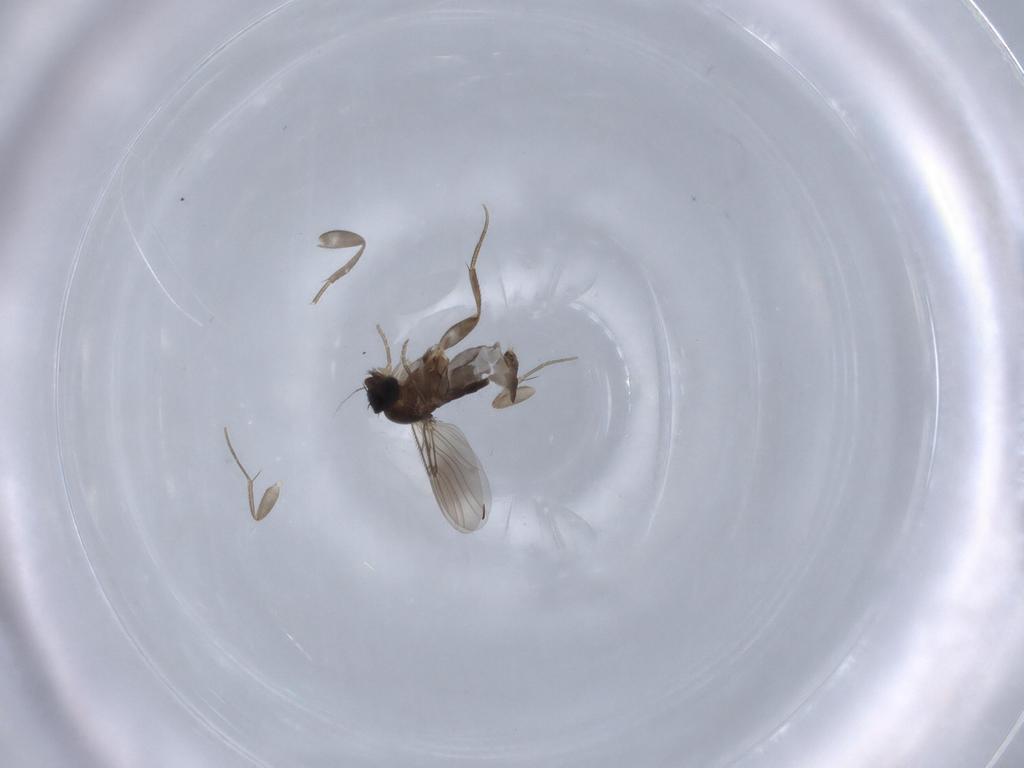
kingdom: Animalia
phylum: Arthropoda
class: Insecta
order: Diptera
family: Phoridae
